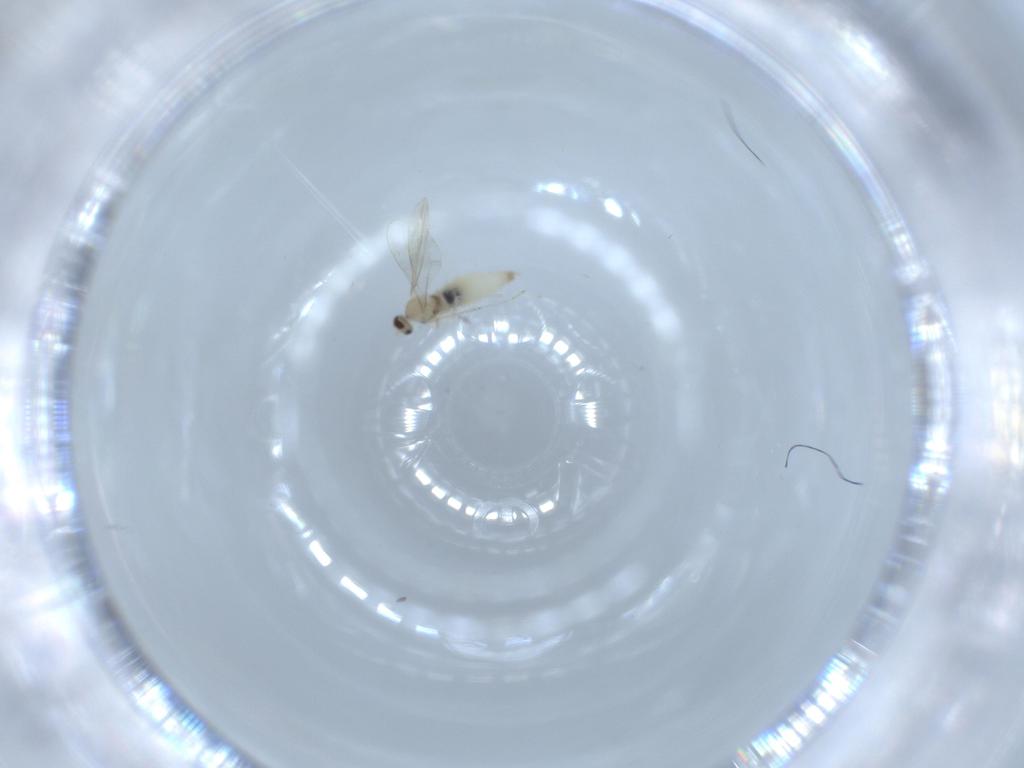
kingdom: Animalia
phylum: Arthropoda
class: Insecta
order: Diptera
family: Cecidomyiidae
